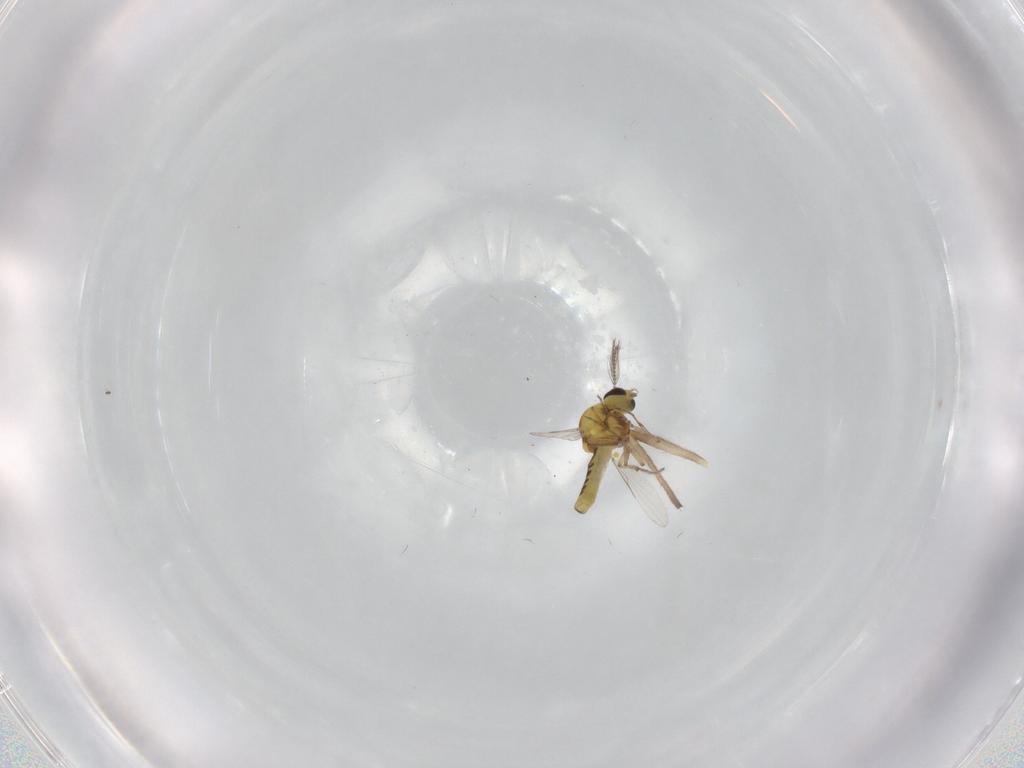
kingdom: Animalia
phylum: Arthropoda
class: Insecta
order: Diptera
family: Ceratopogonidae
